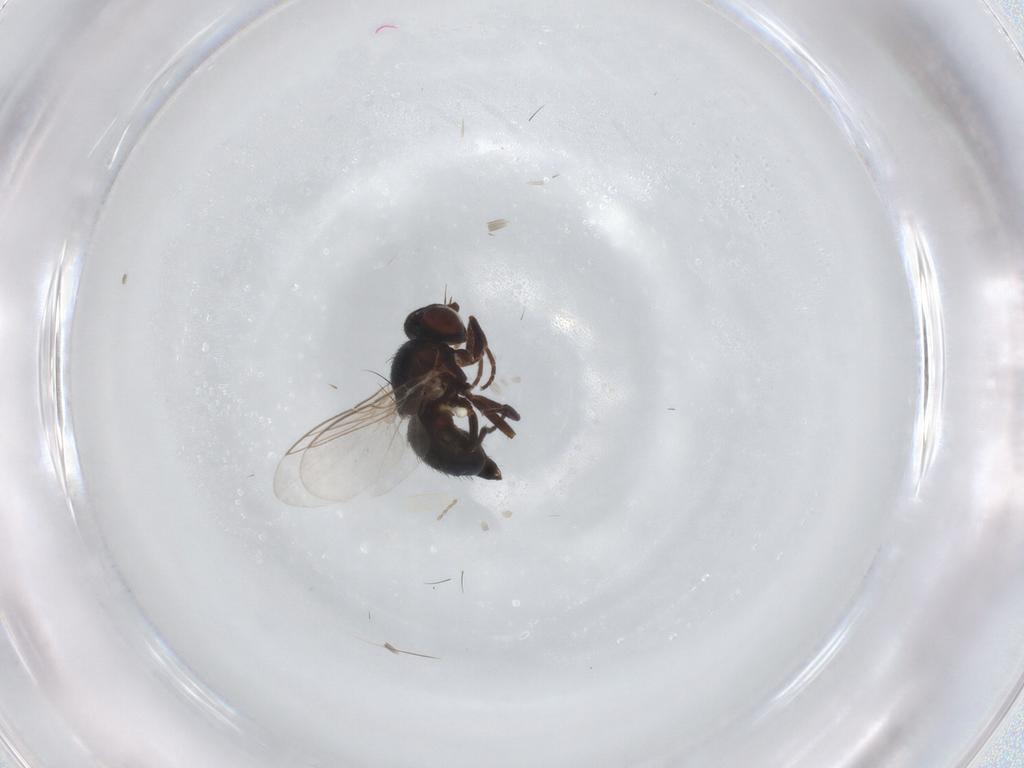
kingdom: Animalia
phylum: Arthropoda
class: Insecta
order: Diptera
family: Ceratopogonidae
